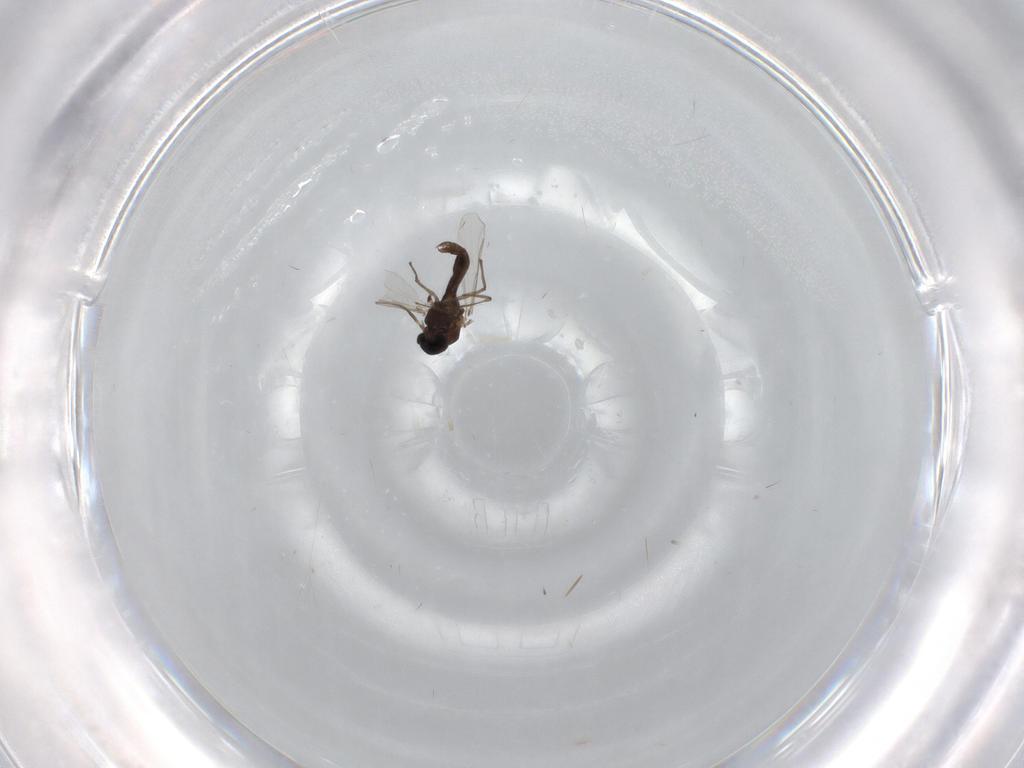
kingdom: Animalia
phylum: Arthropoda
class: Insecta
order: Diptera
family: Chironomidae
